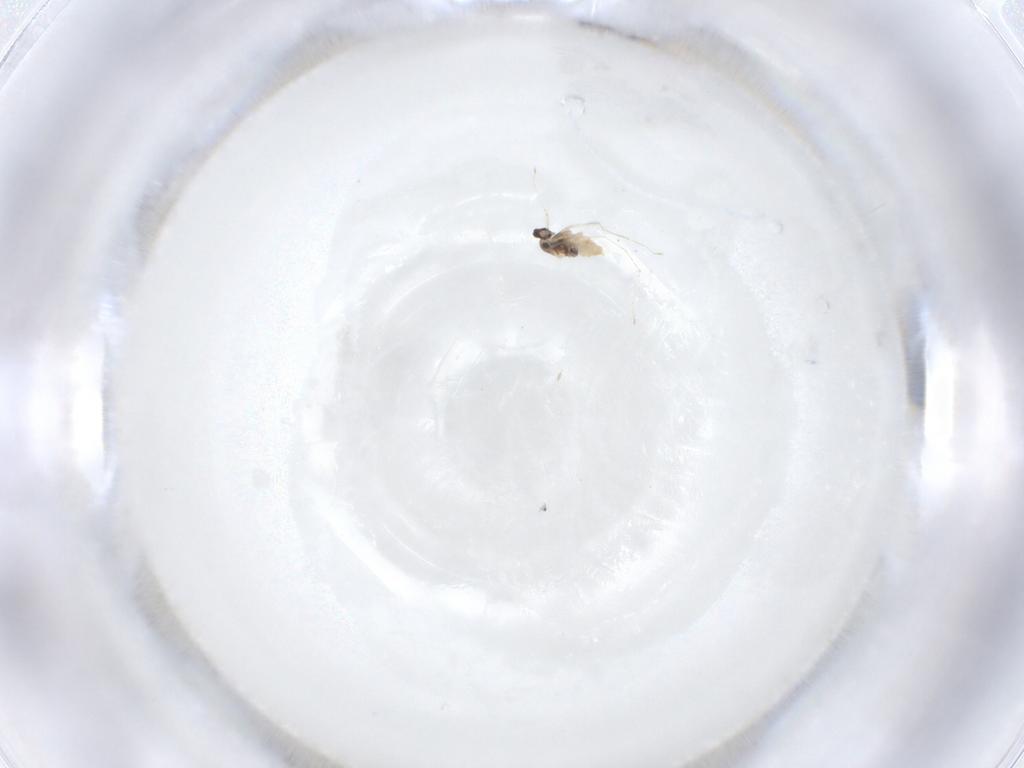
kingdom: Animalia
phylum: Arthropoda
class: Insecta
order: Diptera
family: Cecidomyiidae
